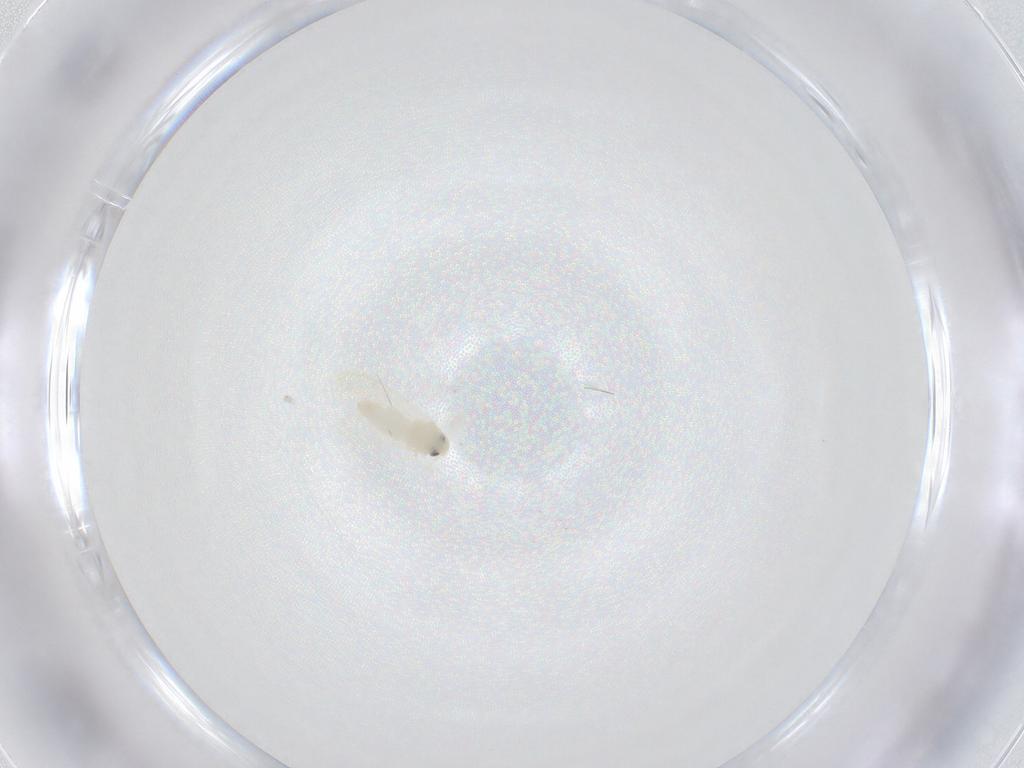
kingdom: Animalia
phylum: Arthropoda
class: Insecta
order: Hemiptera
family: Aleyrodidae
